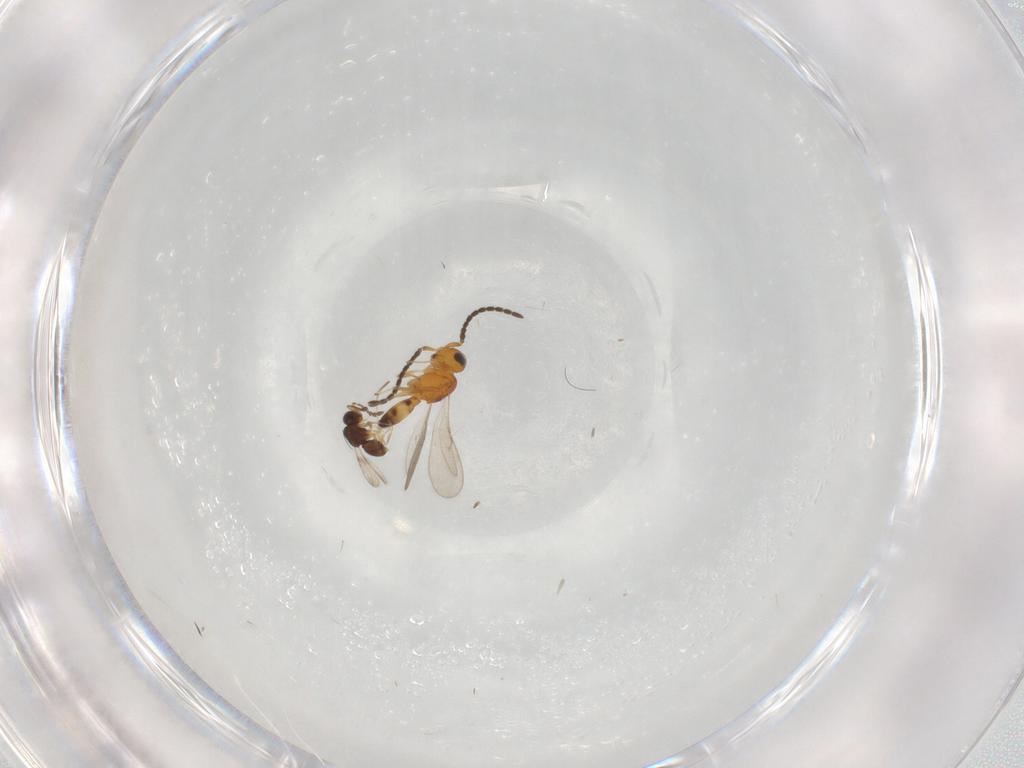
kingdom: Animalia
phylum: Arthropoda
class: Insecta
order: Hymenoptera
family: Scelionidae
